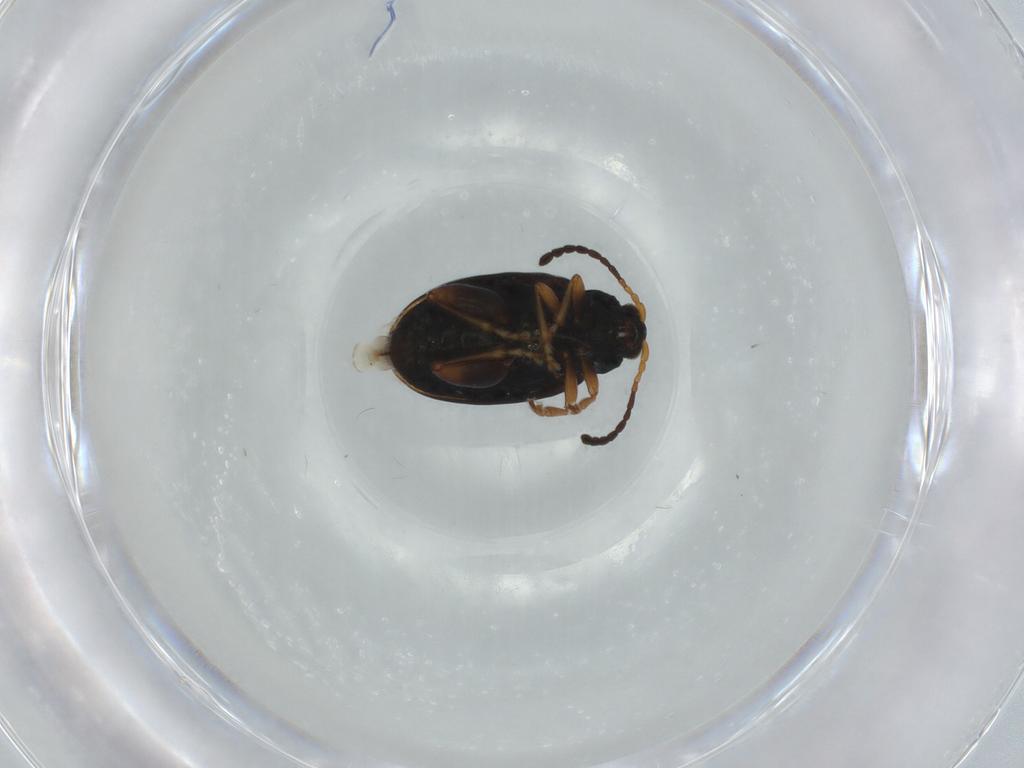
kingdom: Animalia
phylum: Arthropoda
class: Insecta
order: Coleoptera
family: Chrysomelidae
